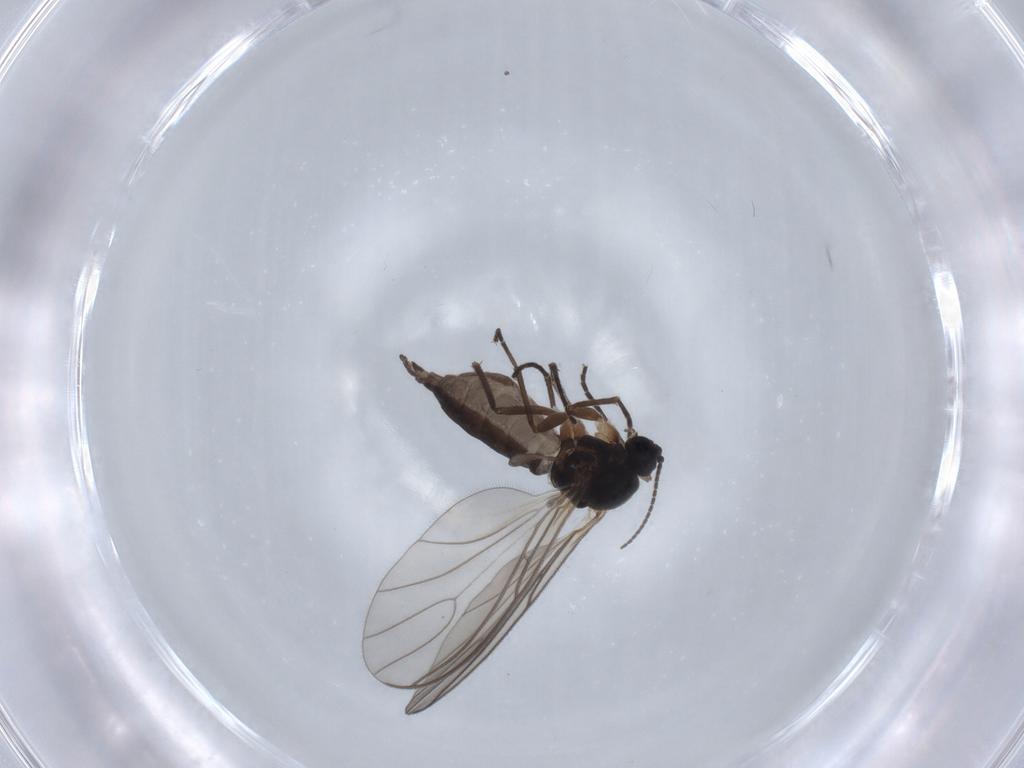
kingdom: Animalia
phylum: Arthropoda
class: Insecta
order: Diptera
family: Sciaridae
